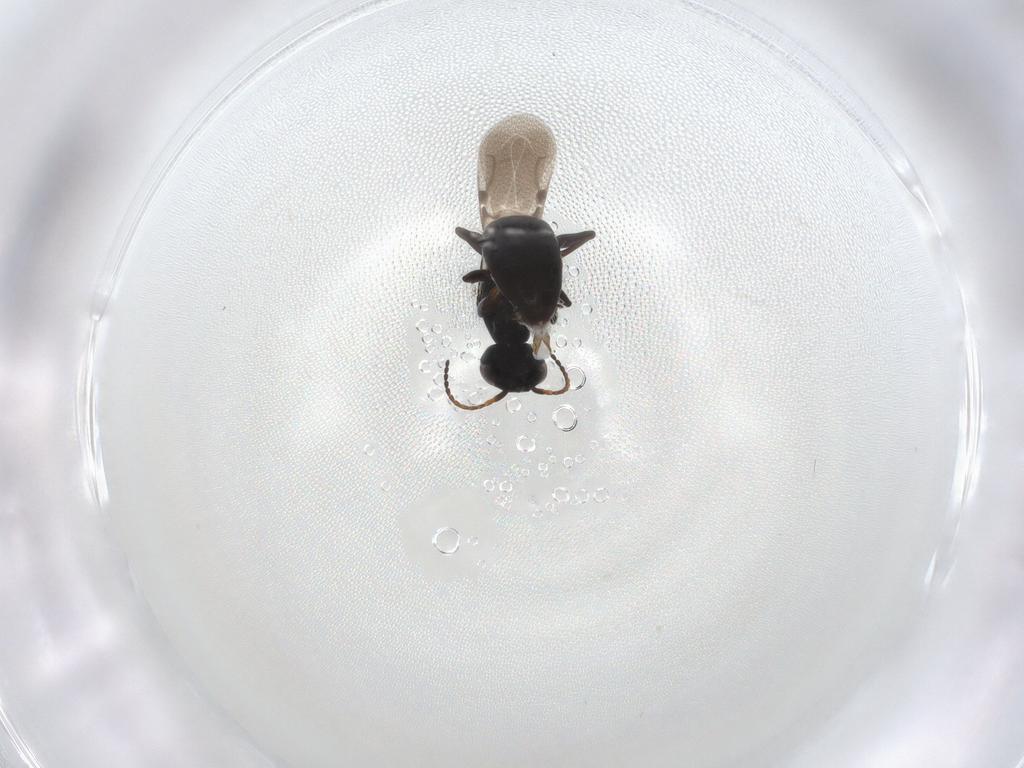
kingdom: Animalia
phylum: Arthropoda
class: Insecta
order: Hymenoptera
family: Bethylidae
